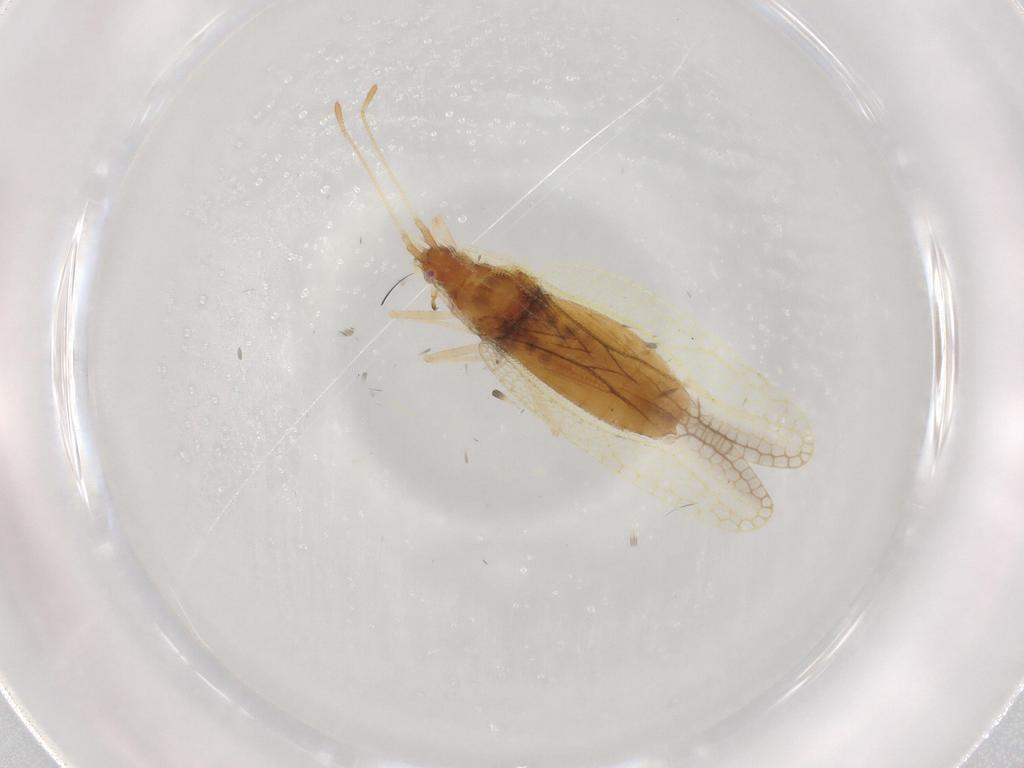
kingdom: Animalia
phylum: Arthropoda
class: Insecta
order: Hemiptera
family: Tingidae
